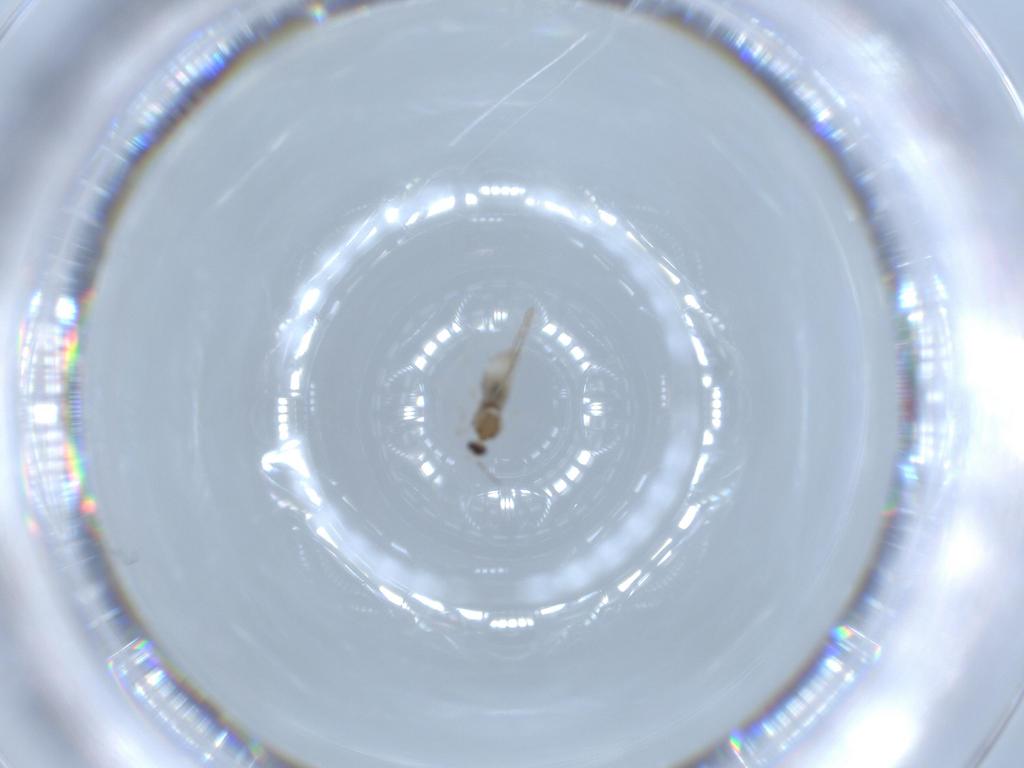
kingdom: Animalia
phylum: Arthropoda
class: Insecta
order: Diptera
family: Cecidomyiidae
